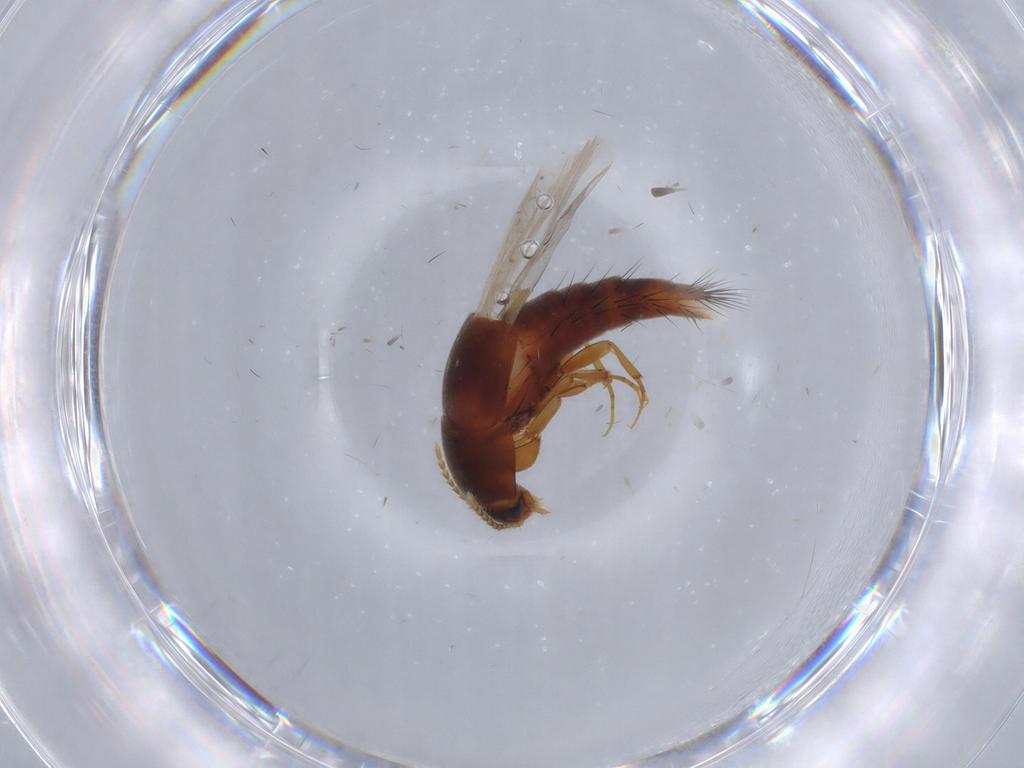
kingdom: Animalia
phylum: Arthropoda
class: Insecta
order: Coleoptera
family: Staphylinidae
